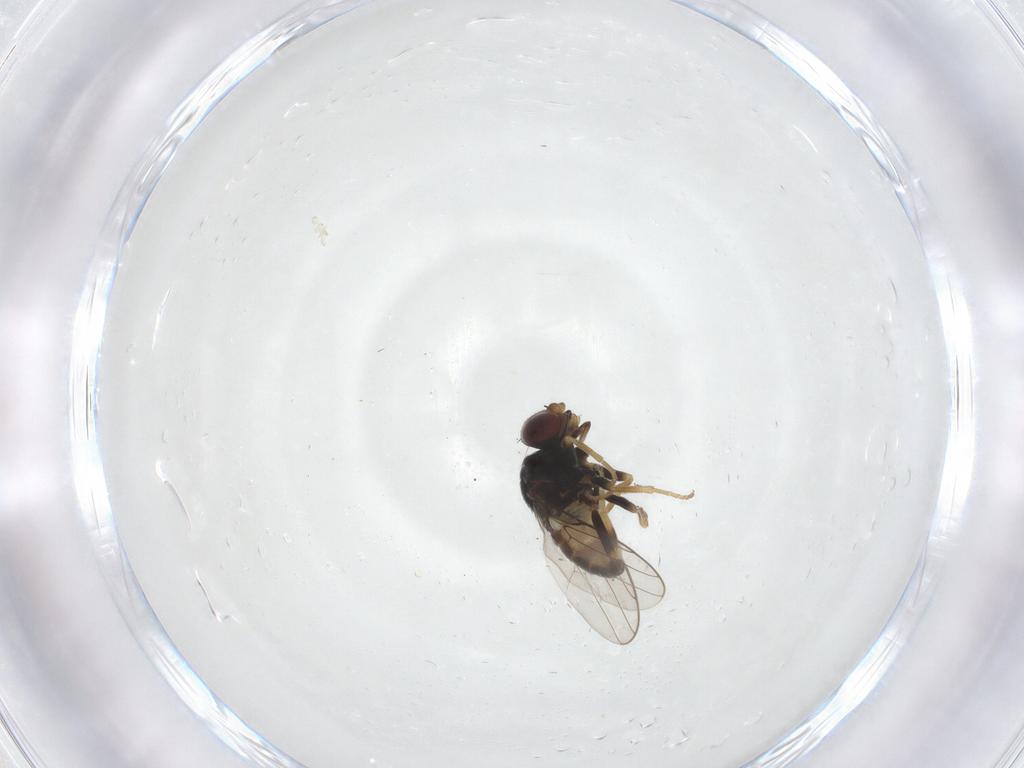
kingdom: Animalia
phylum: Arthropoda
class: Insecta
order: Diptera
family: Chloropidae
